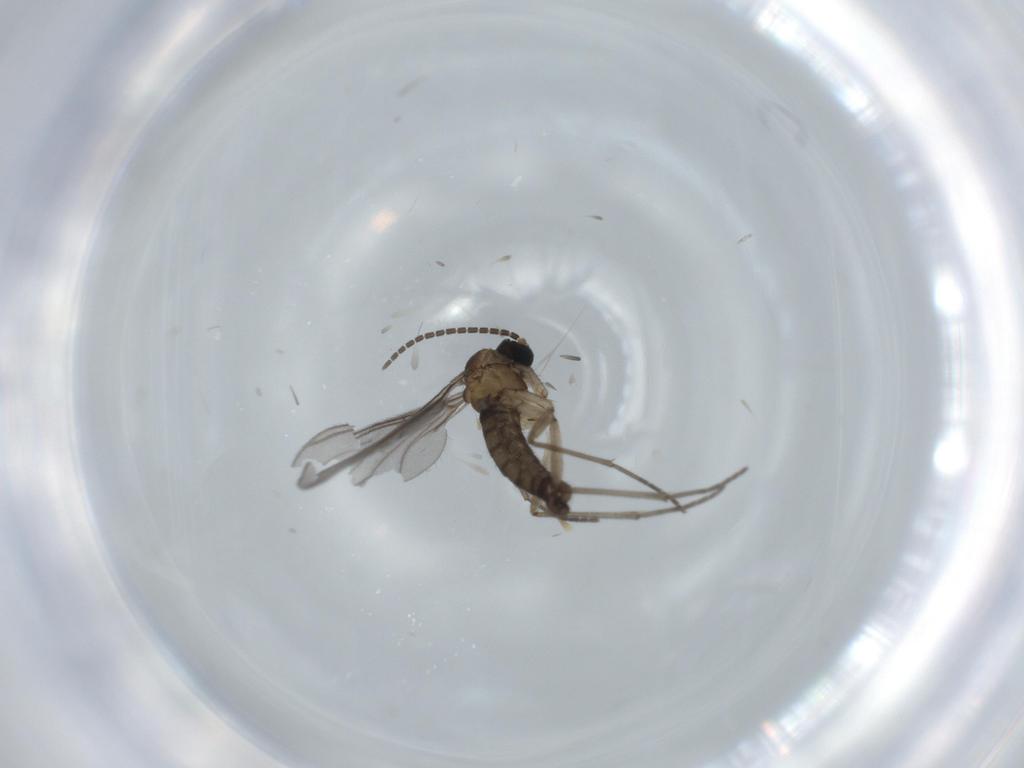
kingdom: Animalia
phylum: Arthropoda
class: Insecta
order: Diptera
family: Sciaridae
